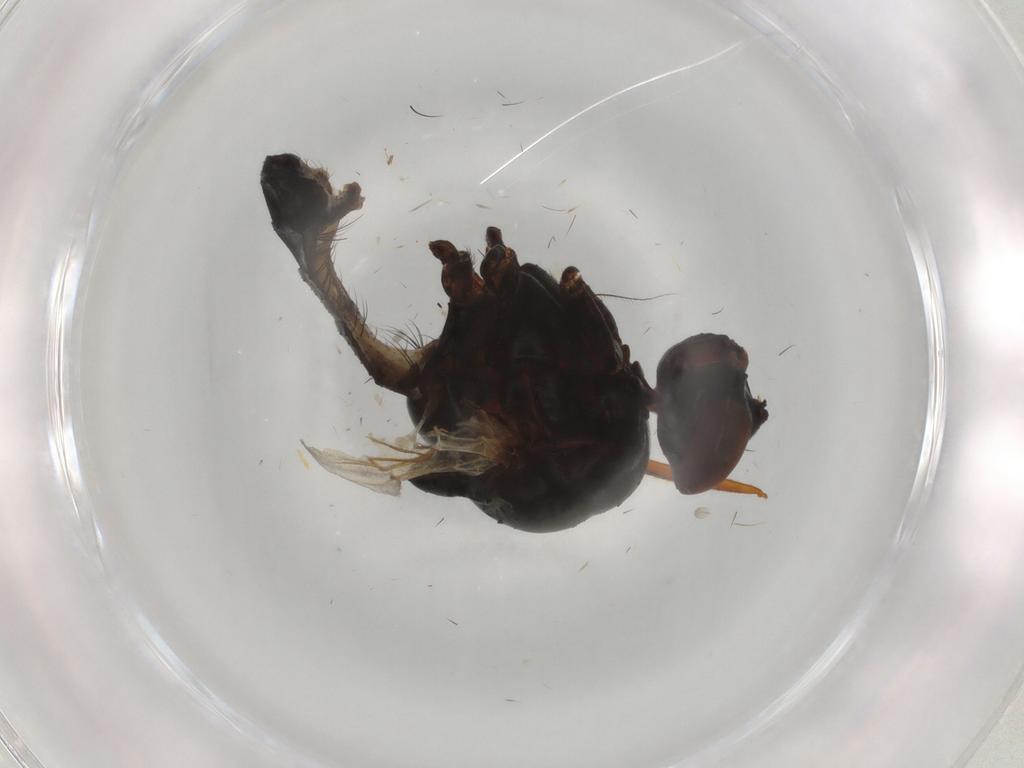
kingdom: Animalia
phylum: Arthropoda
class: Insecta
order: Diptera
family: Anthomyiidae
